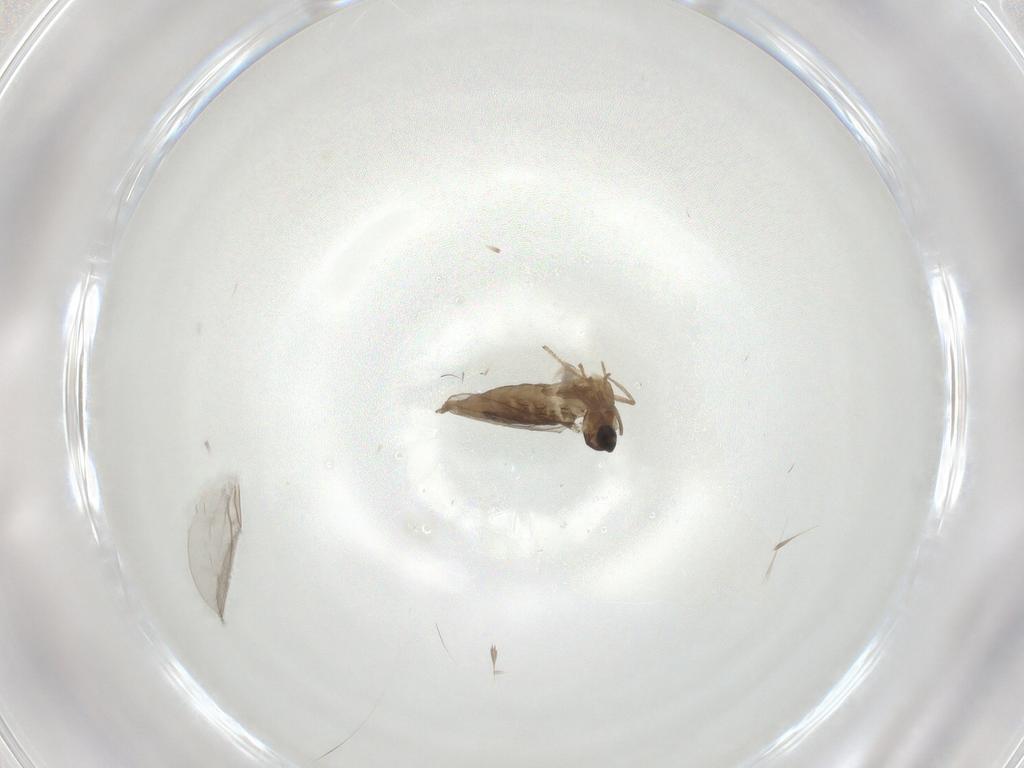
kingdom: Animalia
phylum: Arthropoda
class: Insecta
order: Diptera
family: Cecidomyiidae
